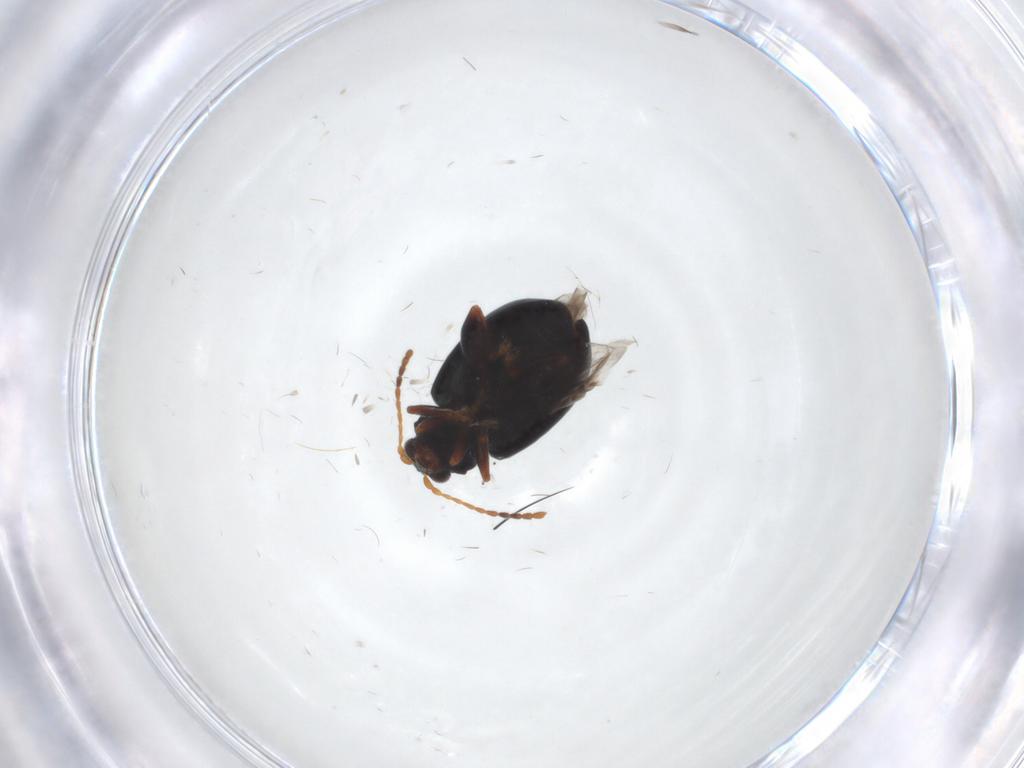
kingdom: Animalia
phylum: Arthropoda
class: Insecta
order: Coleoptera
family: Chrysomelidae
